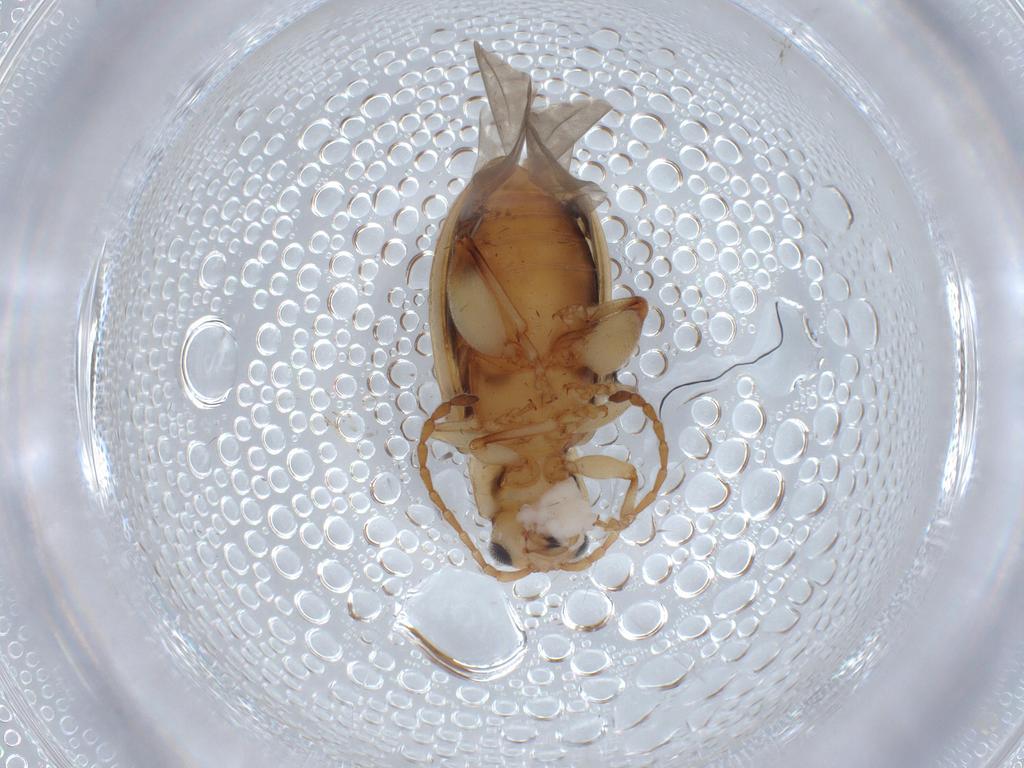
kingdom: Animalia
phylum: Arthropoda
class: Insecta
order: Coleoptera
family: Chrysomelidae
